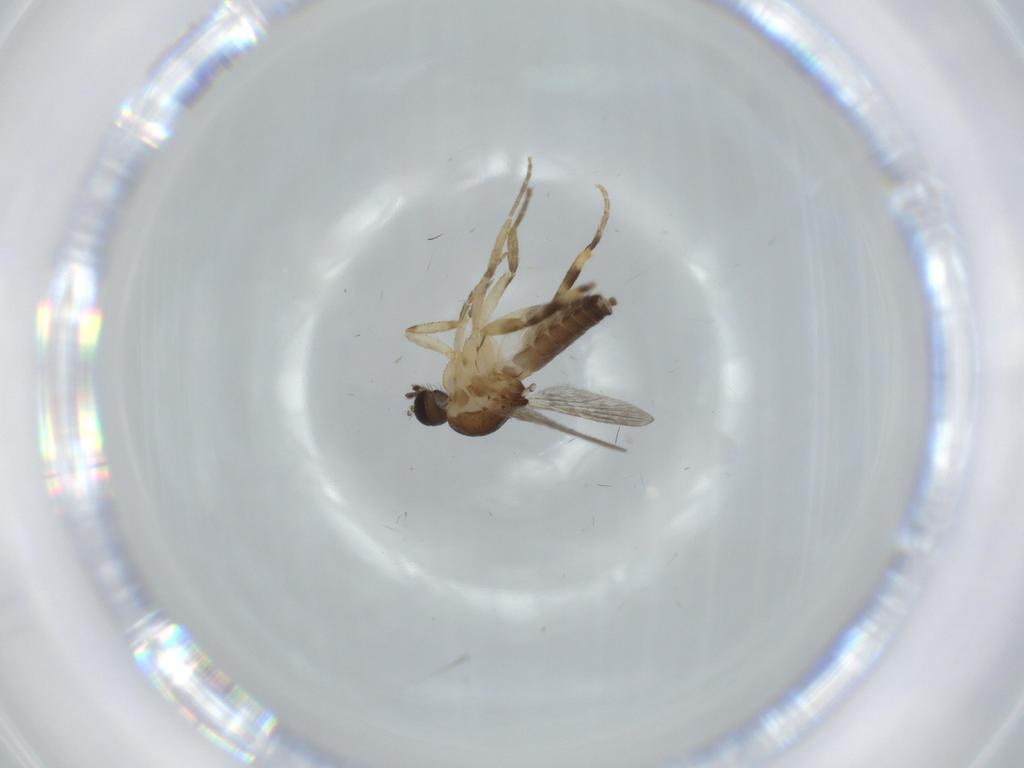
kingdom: Animalia
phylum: Arthropoda
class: Insecta
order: Diptera
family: Ceratopogonidae
